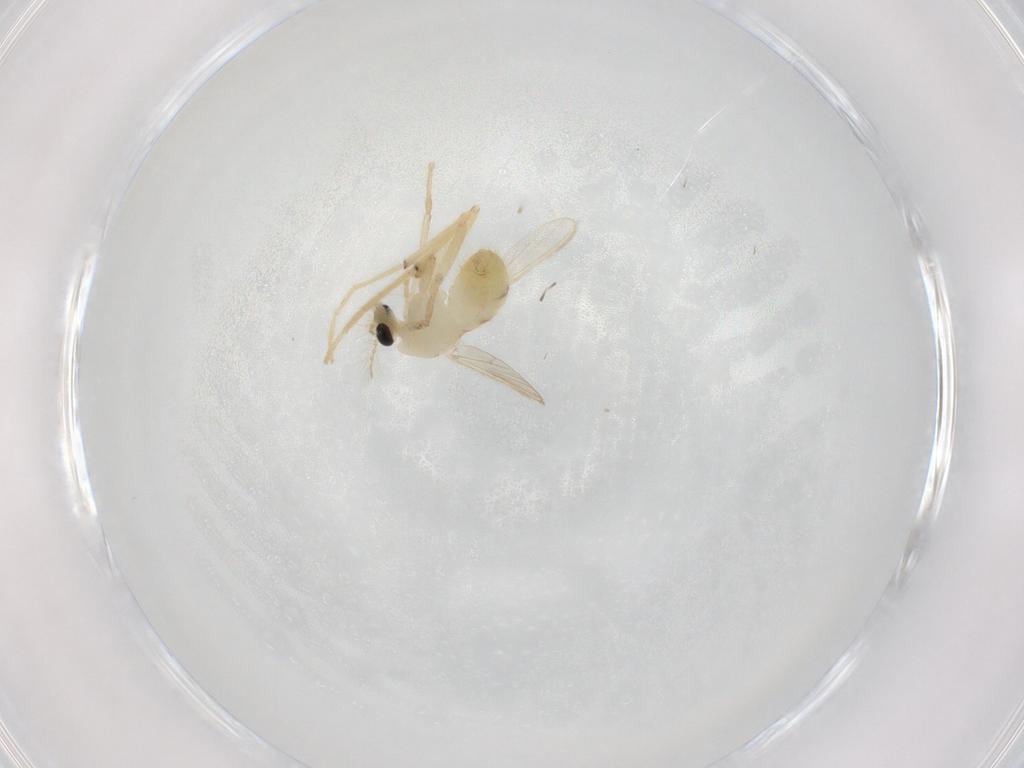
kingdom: Animalia
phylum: Arthropoda
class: Insecta
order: Diptera
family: Chironomidae
